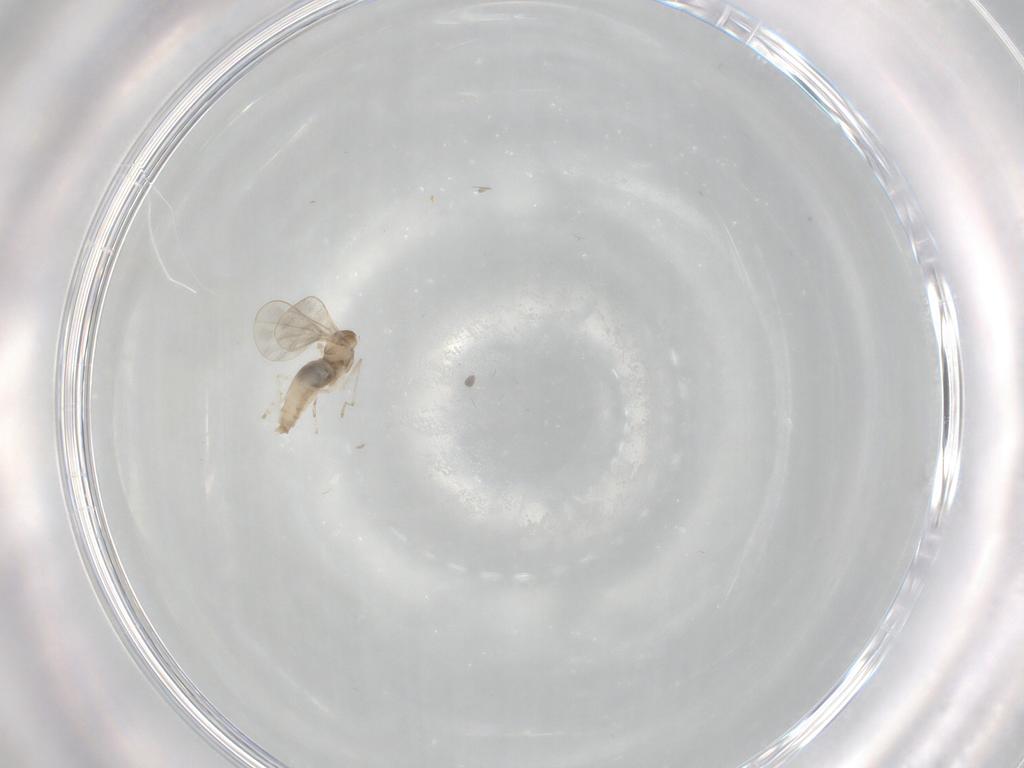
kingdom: Animalia
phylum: Arthropoda
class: Insecta
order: Diptera
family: Cecidomyiidae
